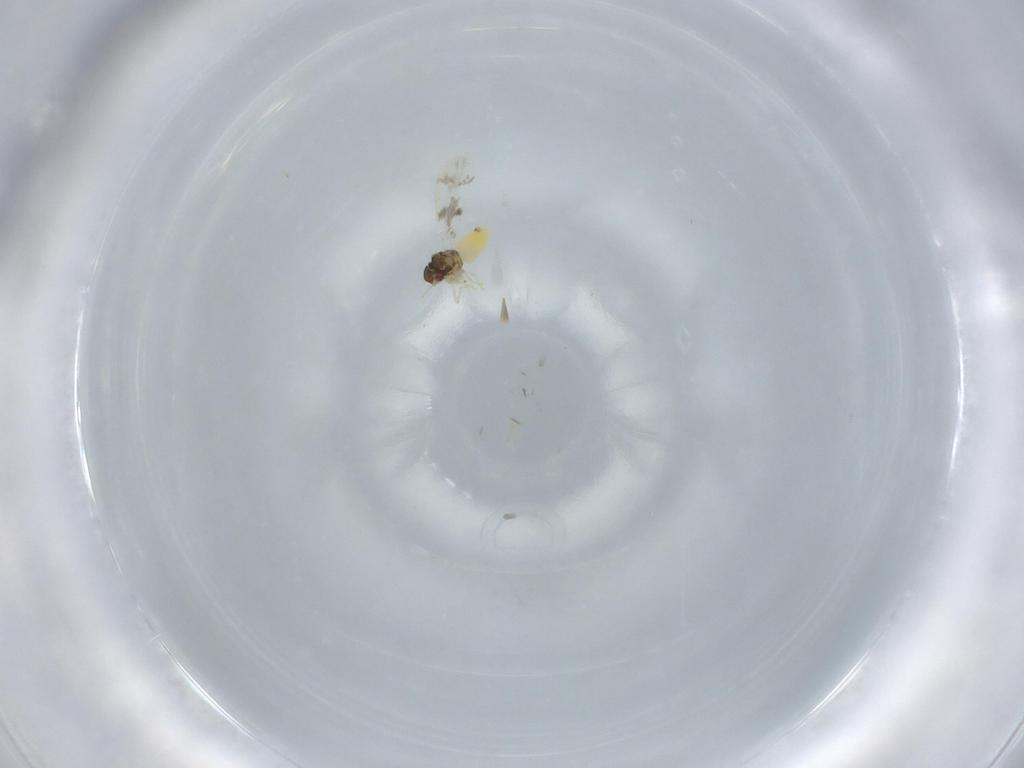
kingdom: Animalia
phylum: Arthropoda
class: Insecta
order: Hemiptera
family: Aleyrodidae
